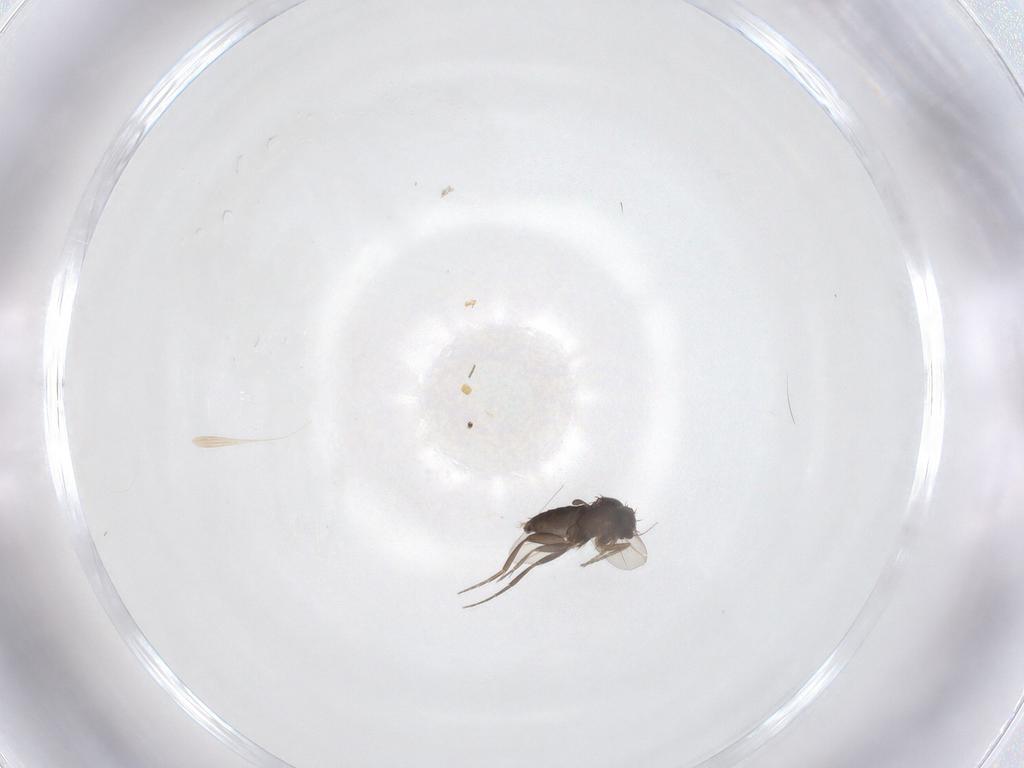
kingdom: Animalia
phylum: Arthropoda
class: Insecta
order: Diptera
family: Phoridae
